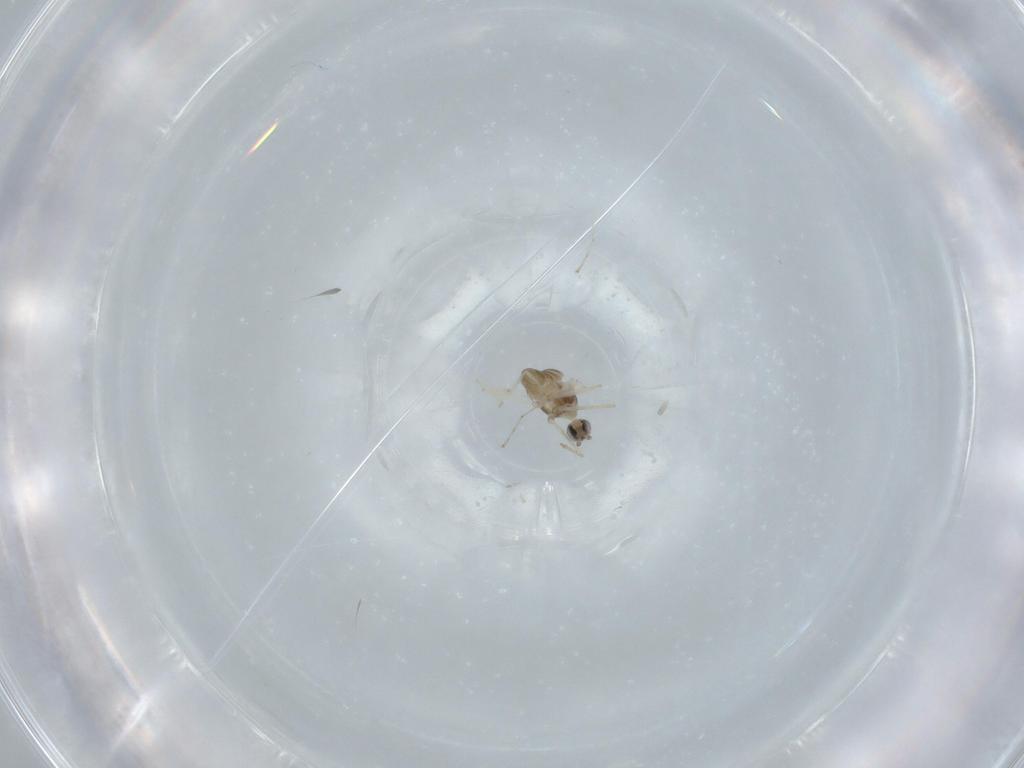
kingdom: Animalia
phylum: Arthropoda
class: Insecta
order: Diptera
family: Cecidomyiidae
